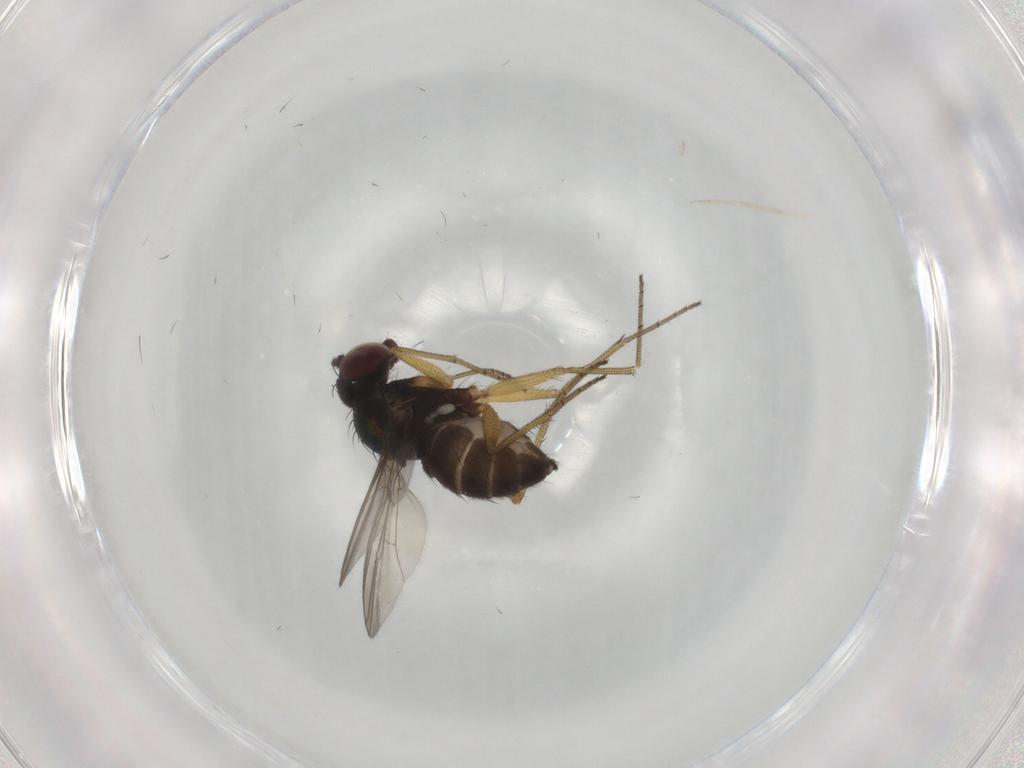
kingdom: Animalia
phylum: Arthropoda
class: Insecta
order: Diptera
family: Dolichopodidae
